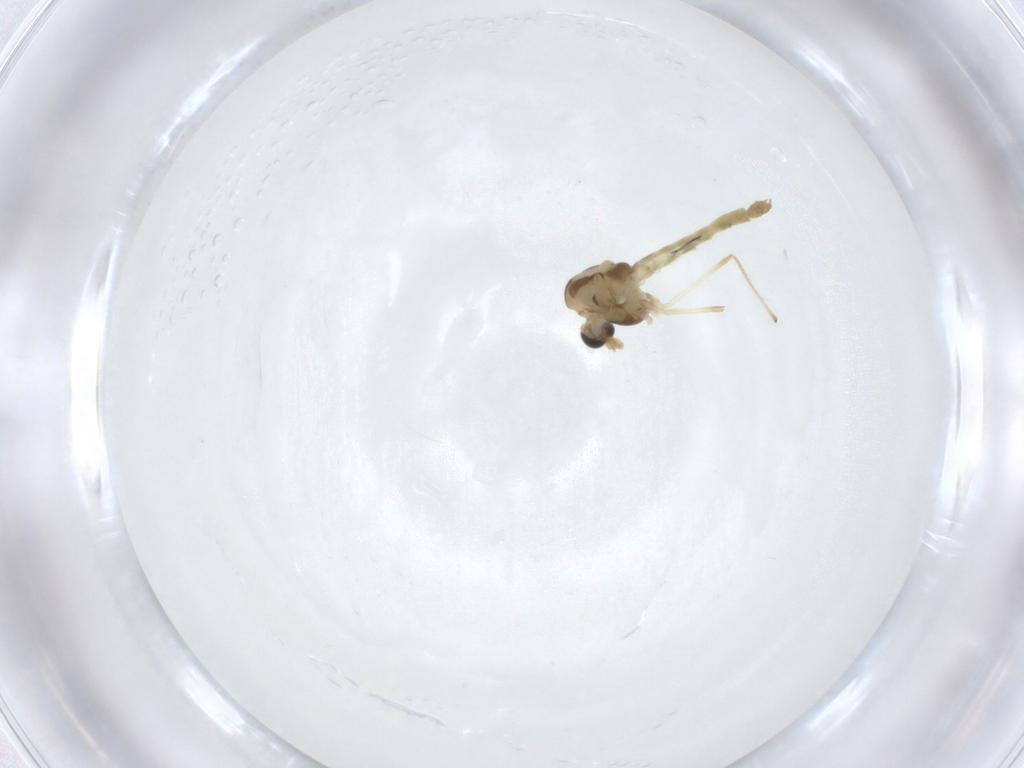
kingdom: Animalia
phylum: Arthropoda
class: Insecta
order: Diptera
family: Chironomidae
